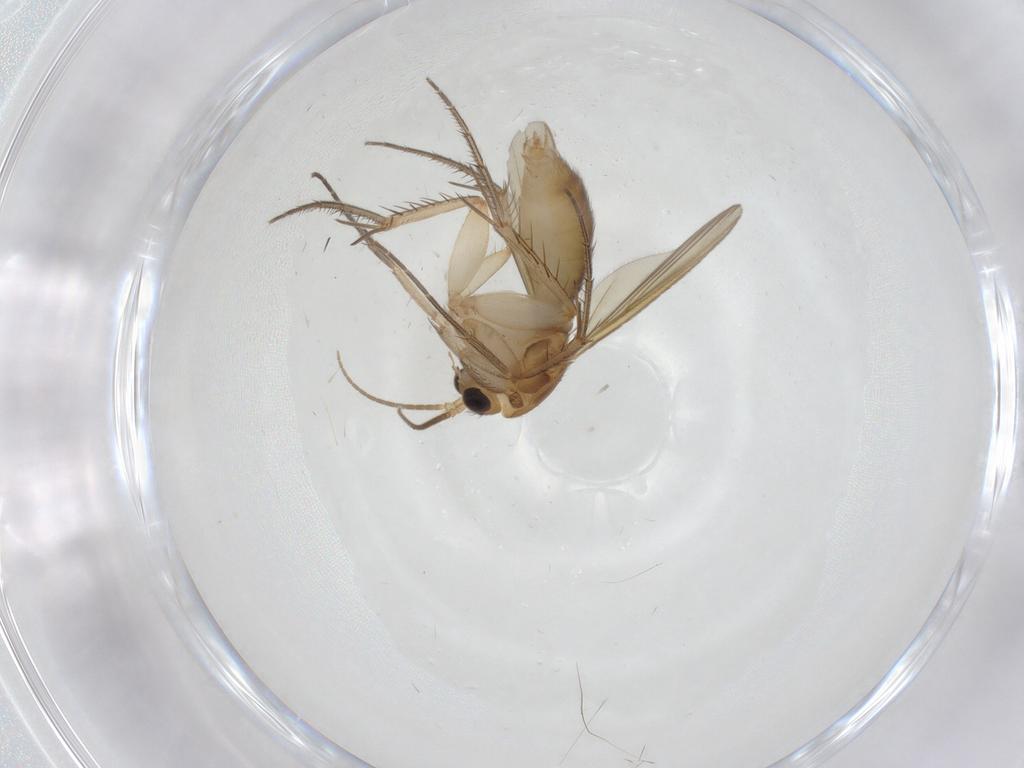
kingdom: Animalia
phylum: Arthropoda
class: Insecta
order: Diptera
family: Mycetophilidae
